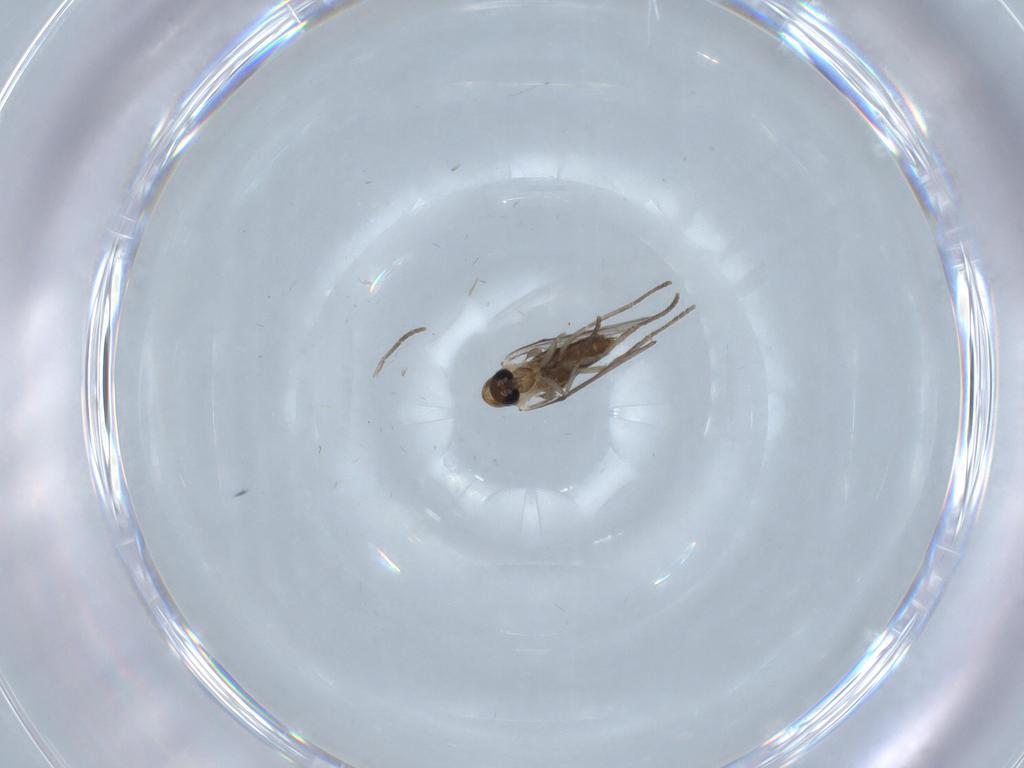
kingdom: Animalia
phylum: Arthropoda
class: Insecta
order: Diptera
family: Psychodidae
